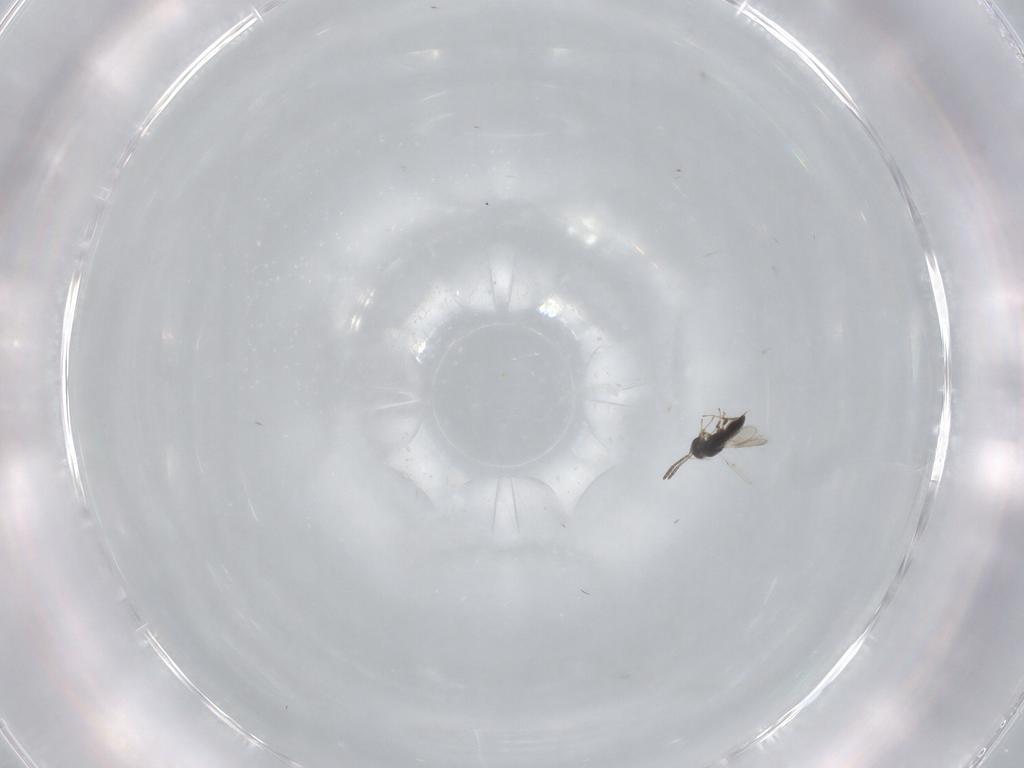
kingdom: Animalia
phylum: Arthropoda
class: Insecta
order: Hymenoptera
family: Scelionidae
